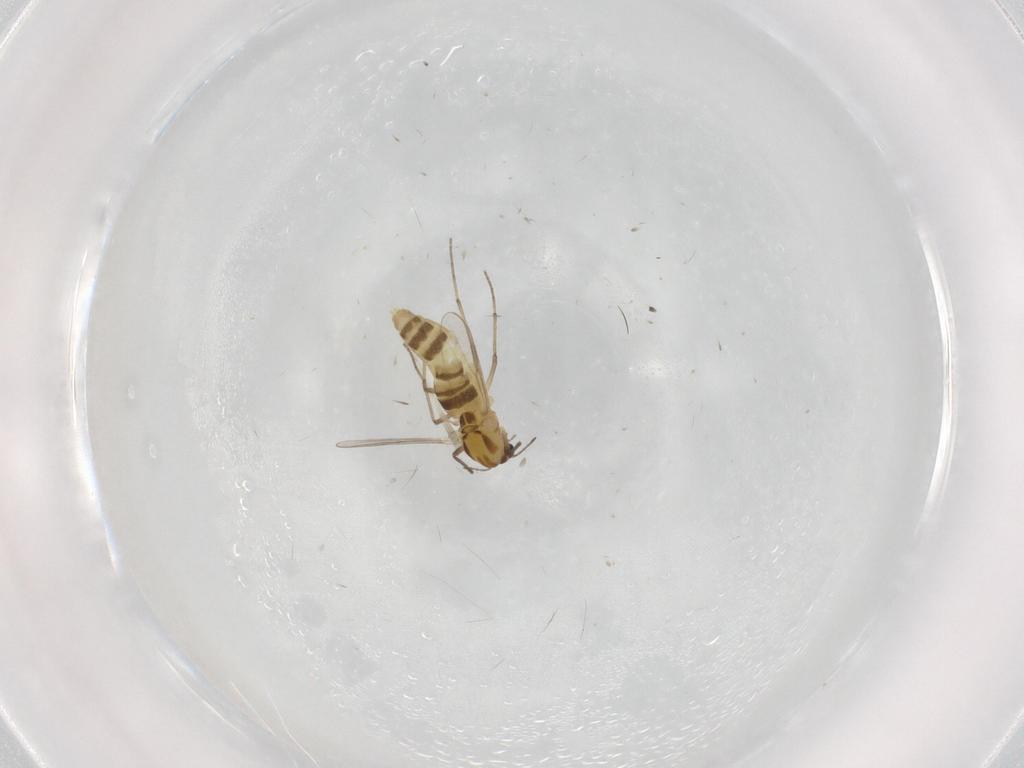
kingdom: Animalia
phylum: Arthropoda
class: Insecta
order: Diptera
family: Chironomidae
